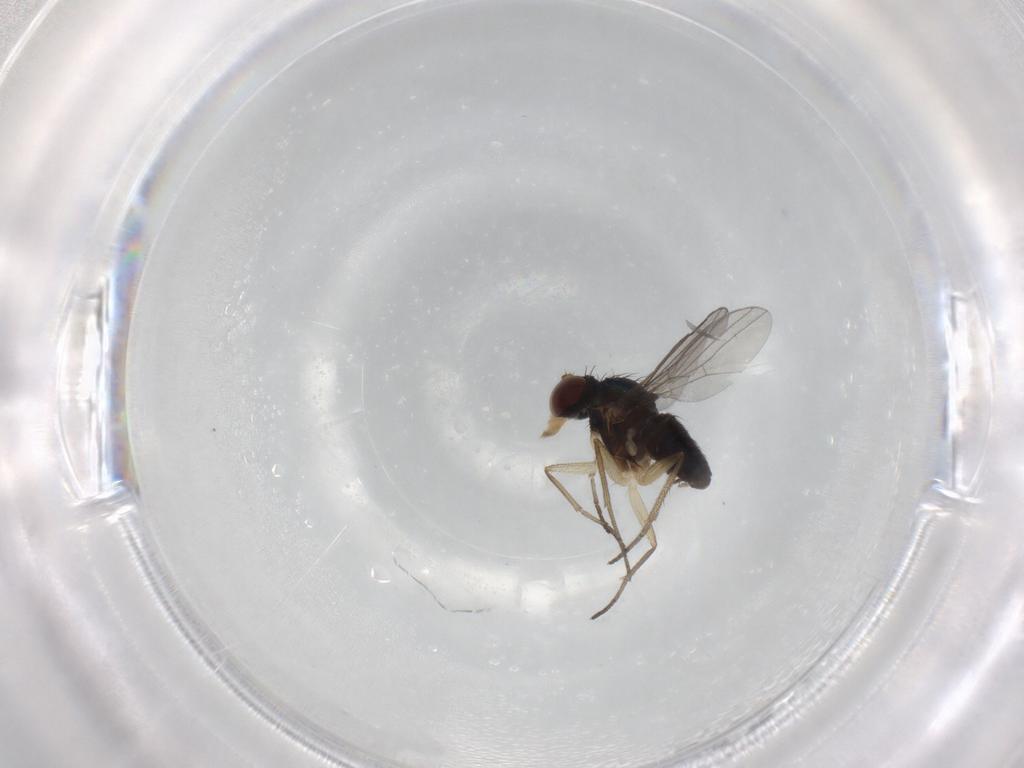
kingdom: Animalia
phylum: Arthropoda
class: Insecta
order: Diptera
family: Dolichopodidae
